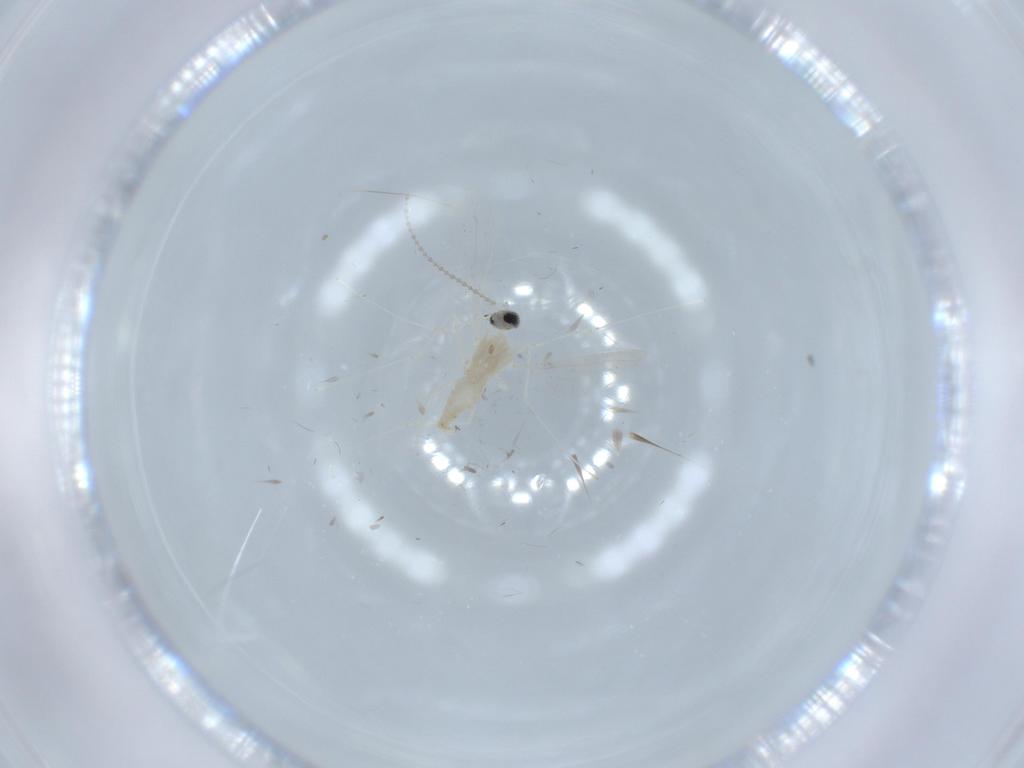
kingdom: Animalia
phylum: Arthropoda
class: Insecta
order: Diptera
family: Cecidomyiidae
